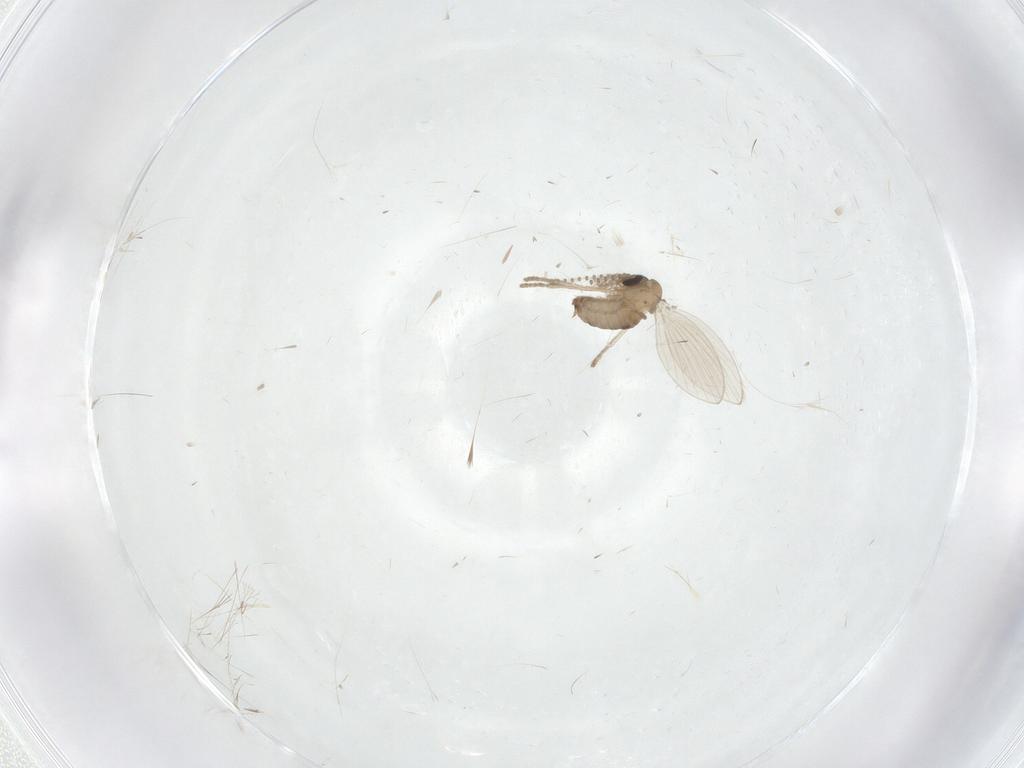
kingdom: Animalia
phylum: Arthropoda
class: Insecta
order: Diptera
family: Psychodidae
